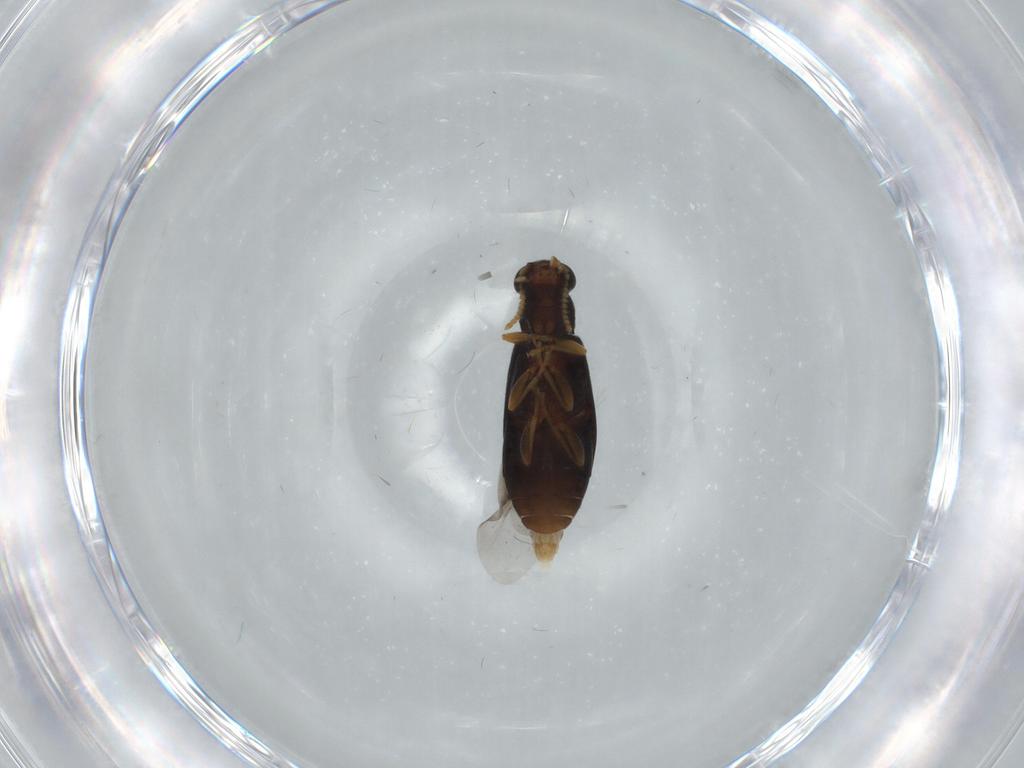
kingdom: Animalia
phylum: Arthropoda
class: Insecta
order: Coleoptera
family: Mycteridae
